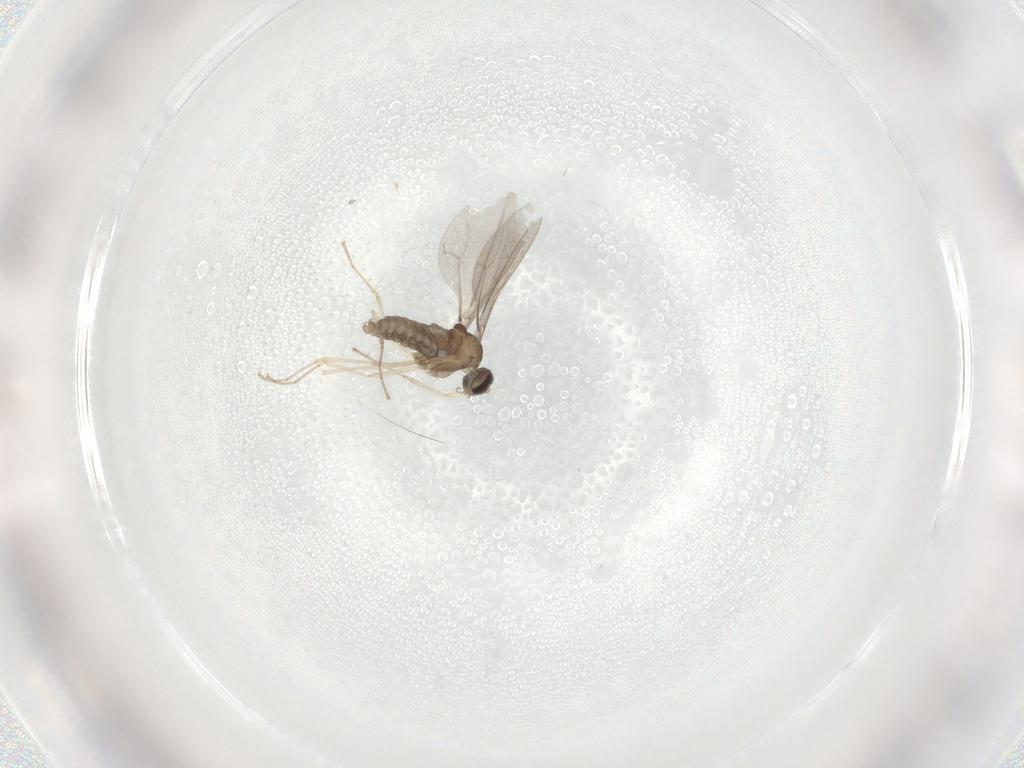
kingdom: Animalia
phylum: Arthropoda
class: Insecta
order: Diptera
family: Cecidomyiidae
